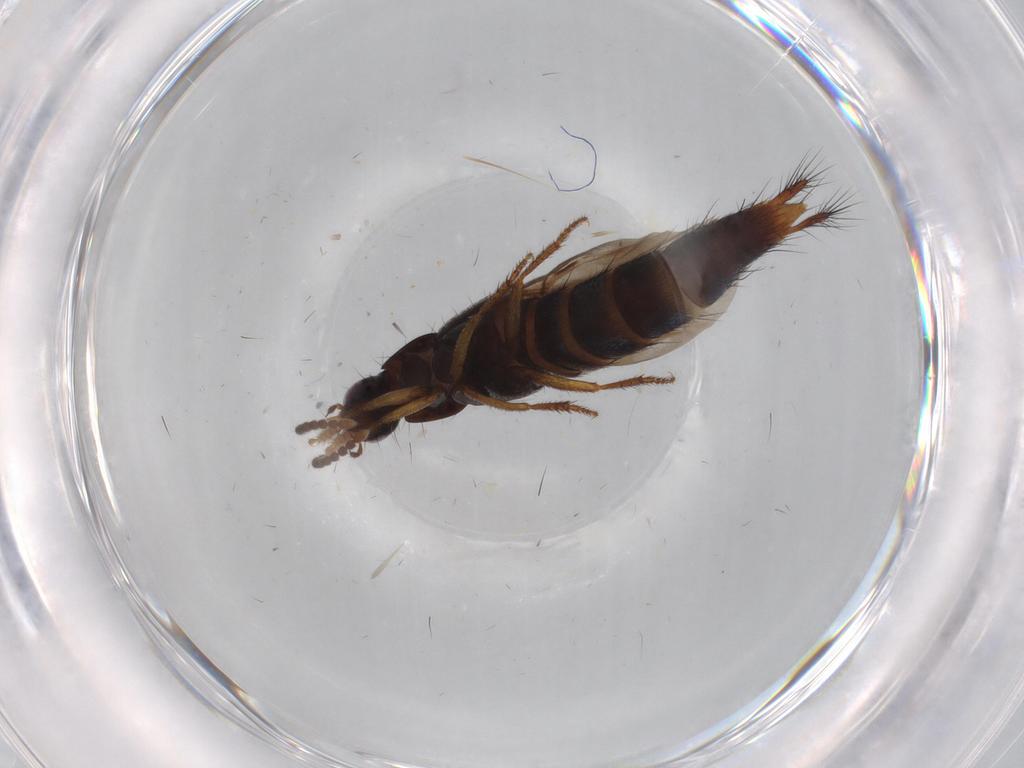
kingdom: Animalia
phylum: Arthropoda
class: Insecta
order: Coleoptera
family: Staphylinidae
